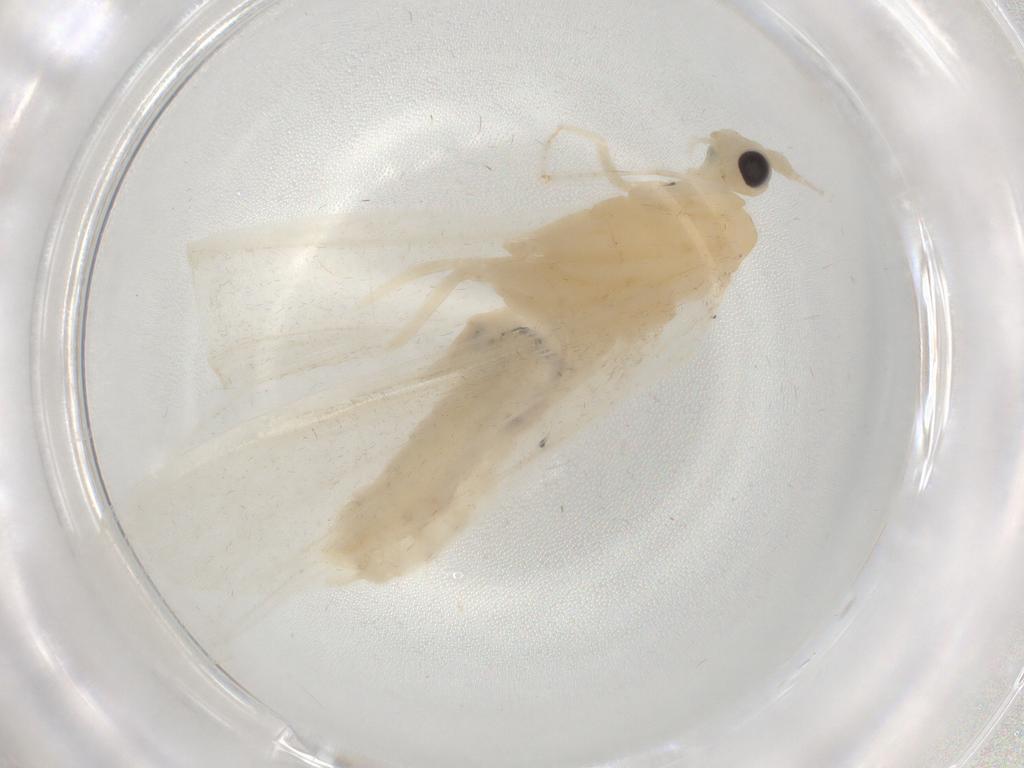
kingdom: Animalia
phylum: Arthropoda
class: Insecta
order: Trichoptera
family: Leptoceridae
